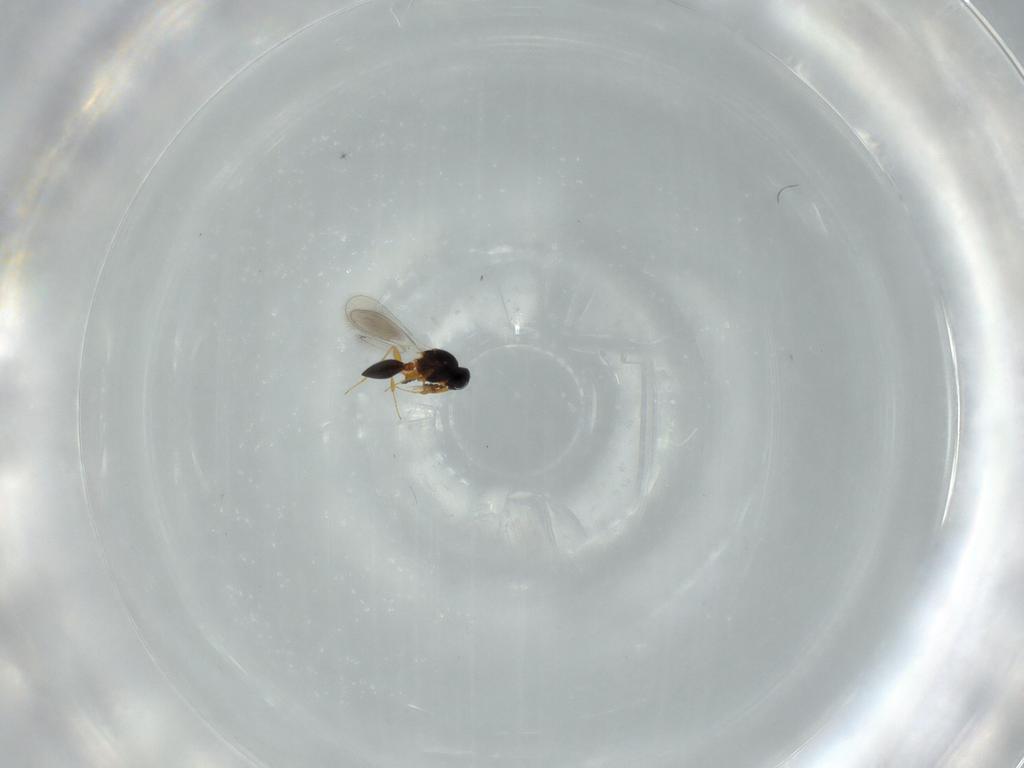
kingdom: Animalia
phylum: Arthropoda
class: Insecta
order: Hymenoptera
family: Platygastridae
